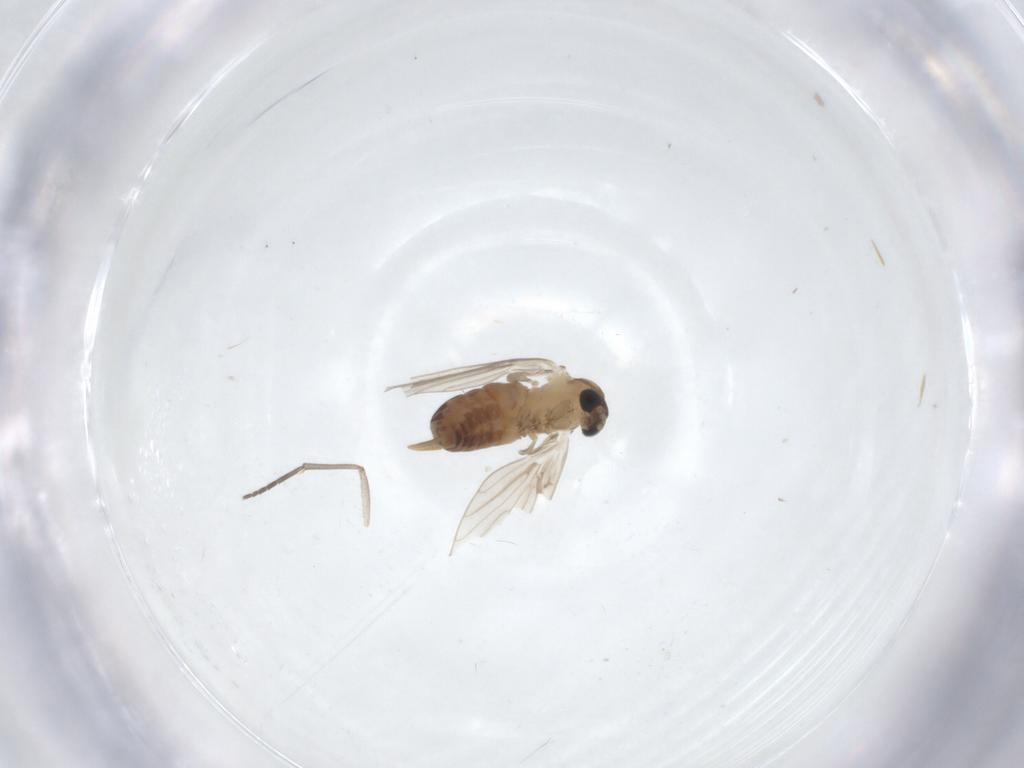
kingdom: Animalia
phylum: Arthropoda
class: Insecta
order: Diptera
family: Psychodidae
